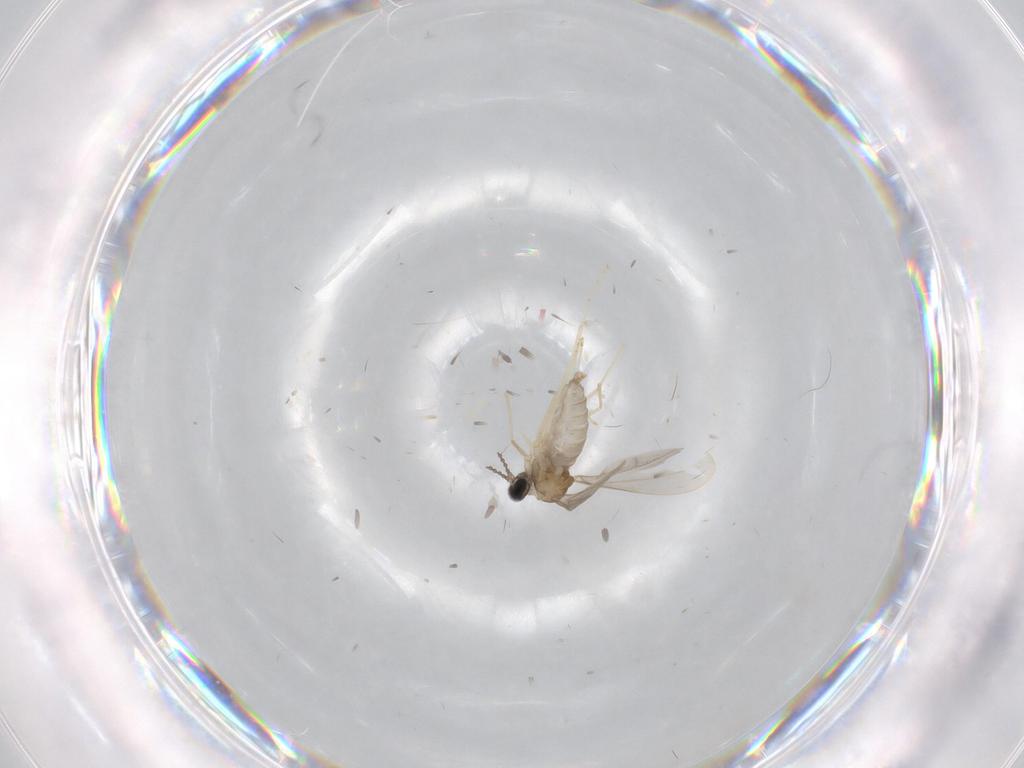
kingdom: Animalia
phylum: Arthropoda
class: Insecta
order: Diptera
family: Cecidomyiidae
